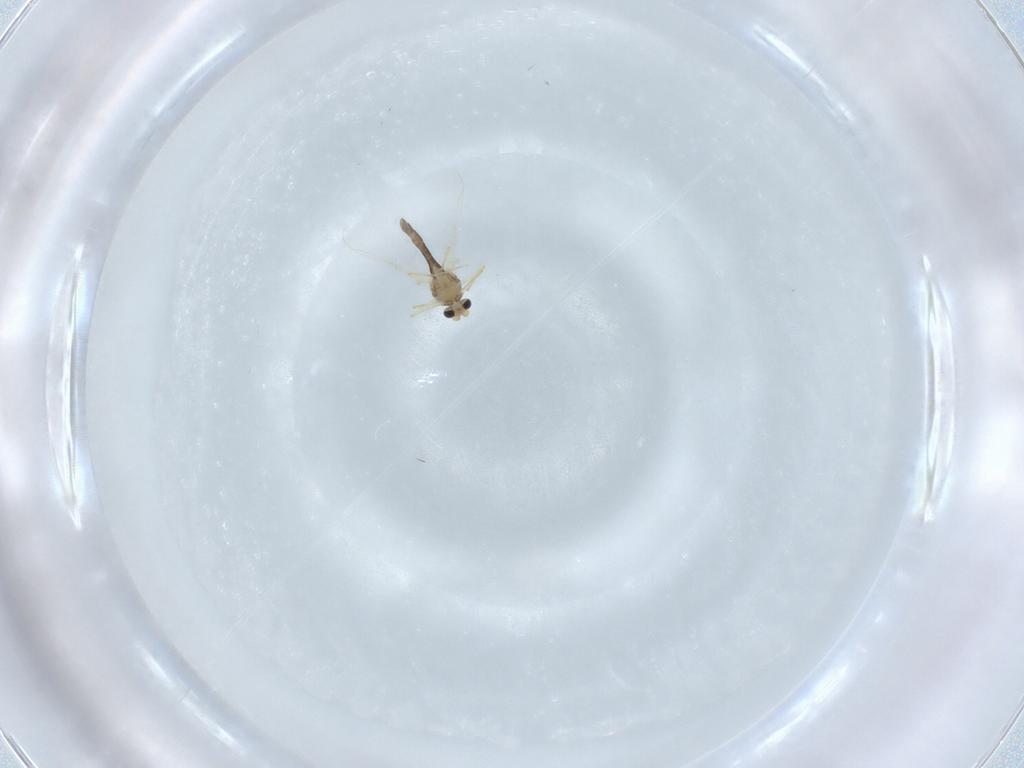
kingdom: Animalia
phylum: Arthropoda
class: Insecta
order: Diptera
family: Chironomidae
